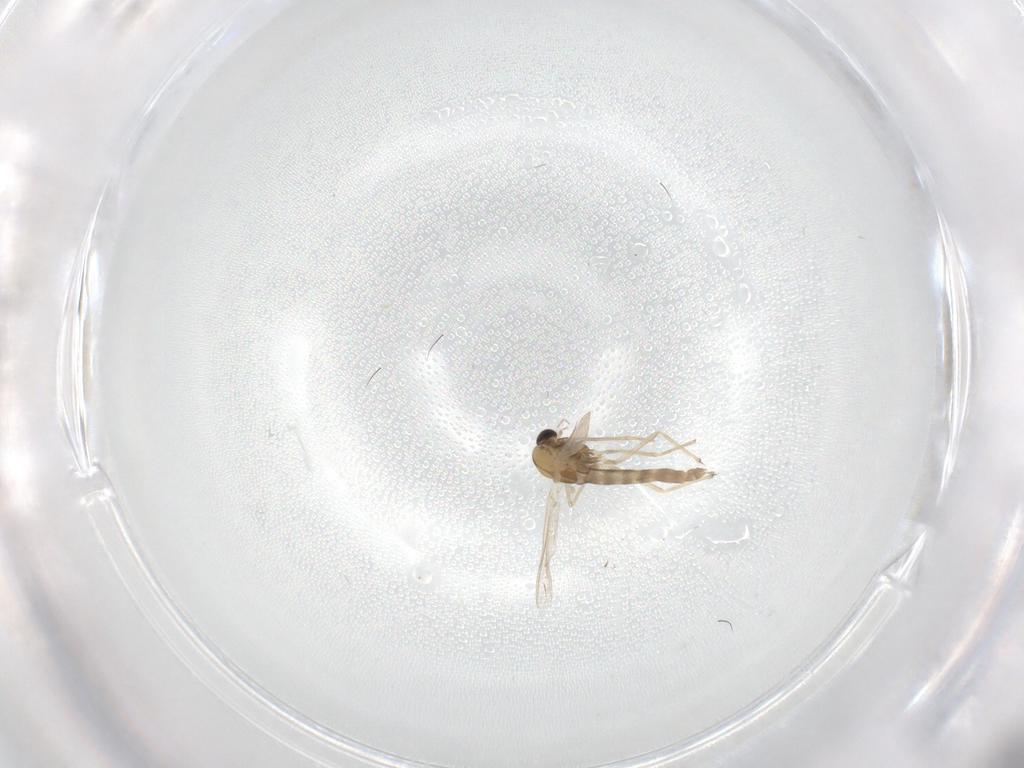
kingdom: Animalia
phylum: Arthropoda
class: Insecta
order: Diptera
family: Chironomidae
